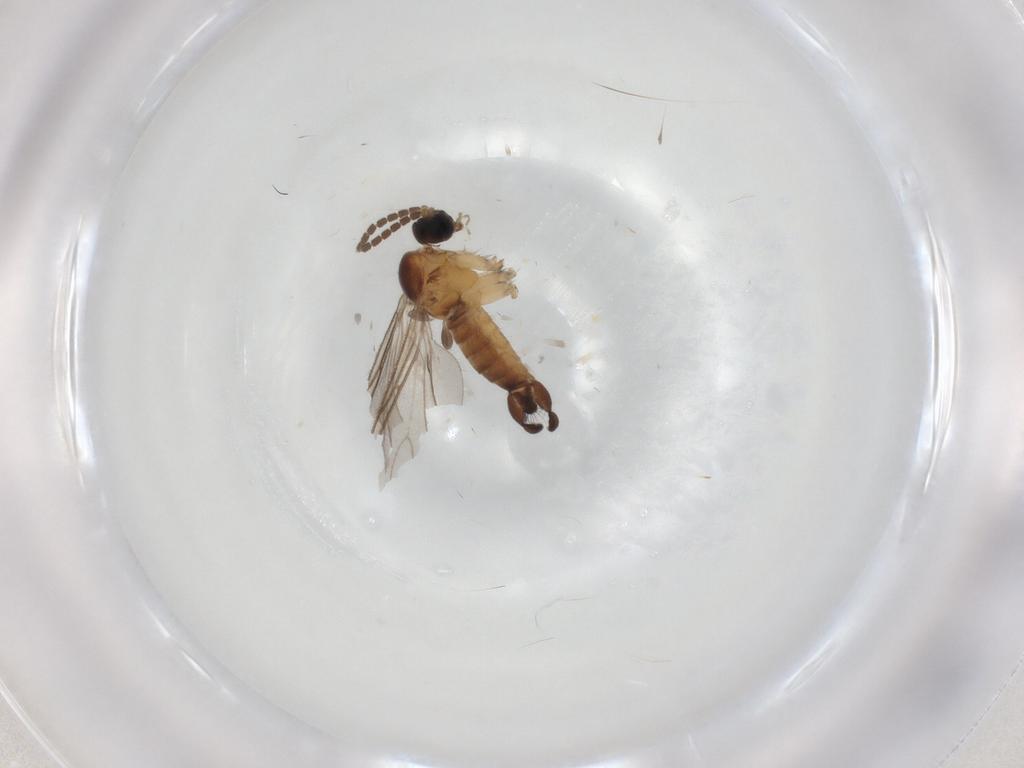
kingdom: Animalia
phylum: Arthropoda
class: Insecta
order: Diptera
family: Sciaridae
